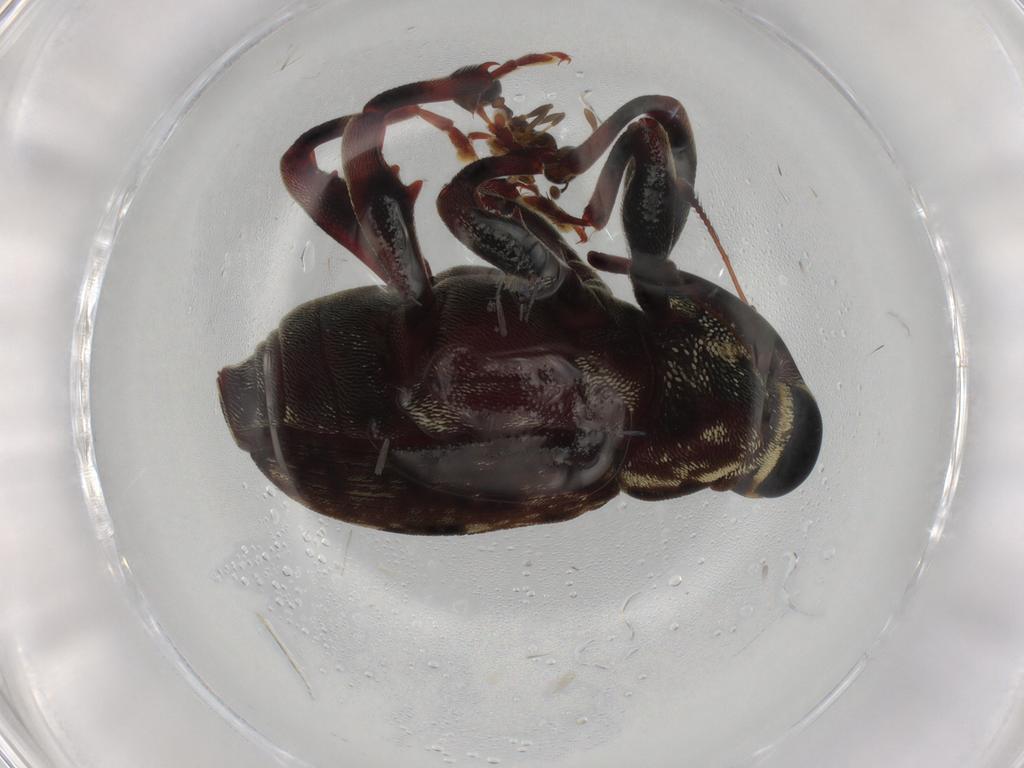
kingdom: Animalia
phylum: Arthropoda
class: Insecta
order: Coleoptera
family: Curculionidae
